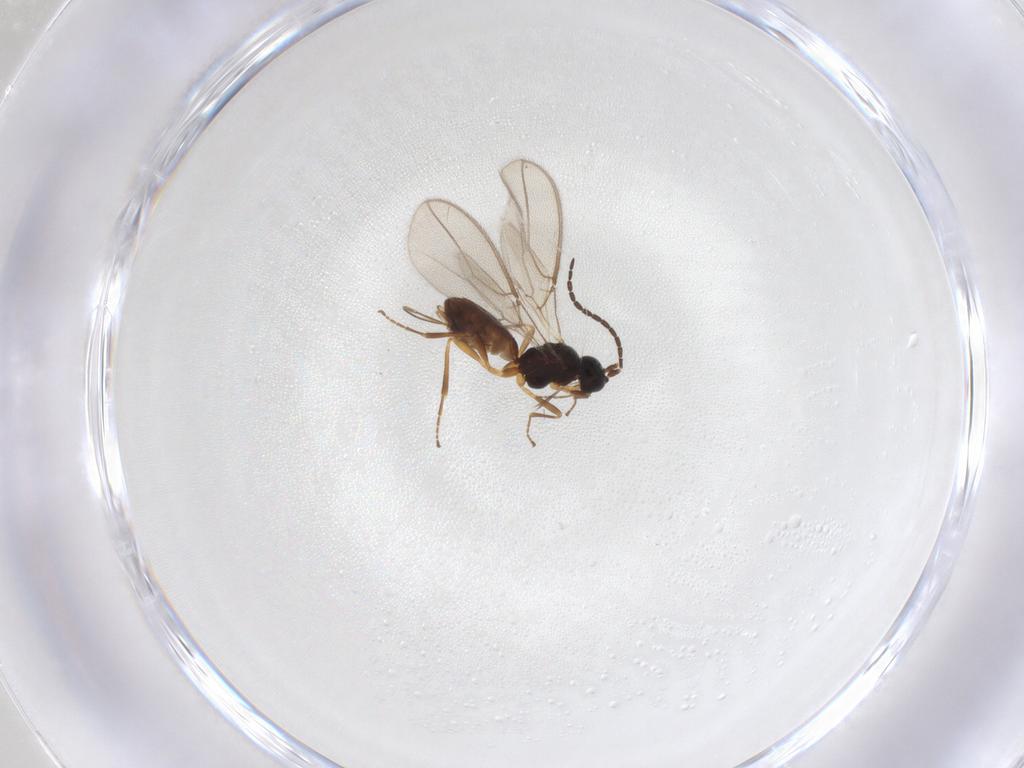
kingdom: Animalia
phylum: Arthropoda
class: Insecta
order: Hymenoptera
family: Braconidae
